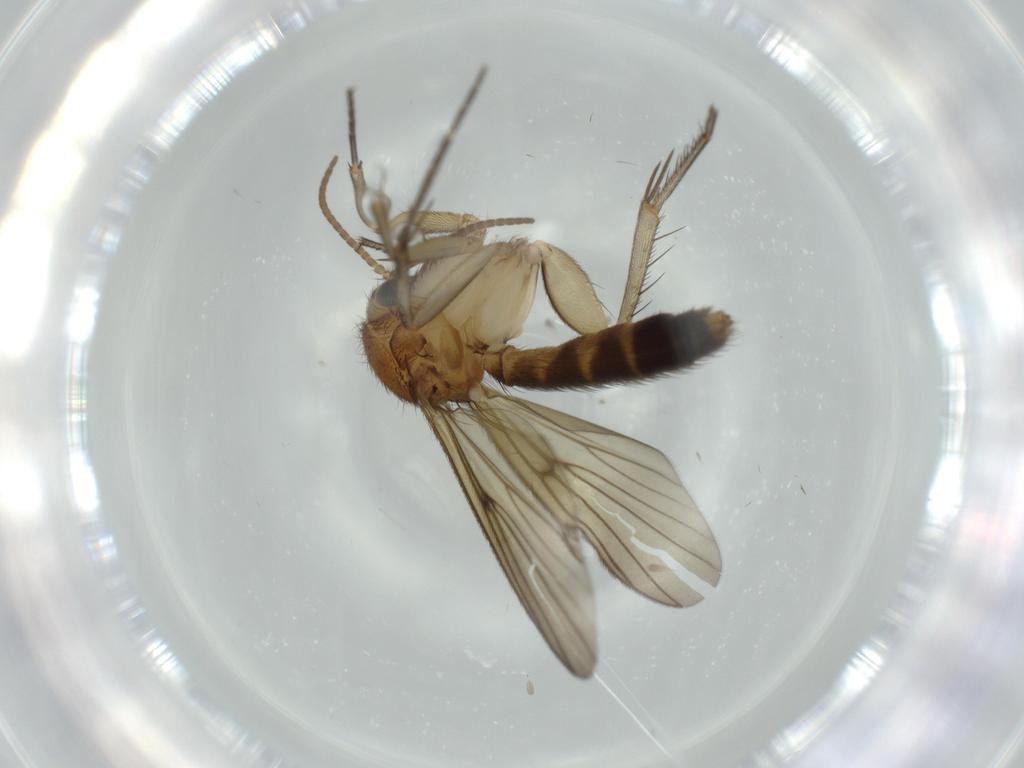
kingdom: Animalia
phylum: Arthropoda
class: Insecta
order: Diptera
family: Mycetophilidae
